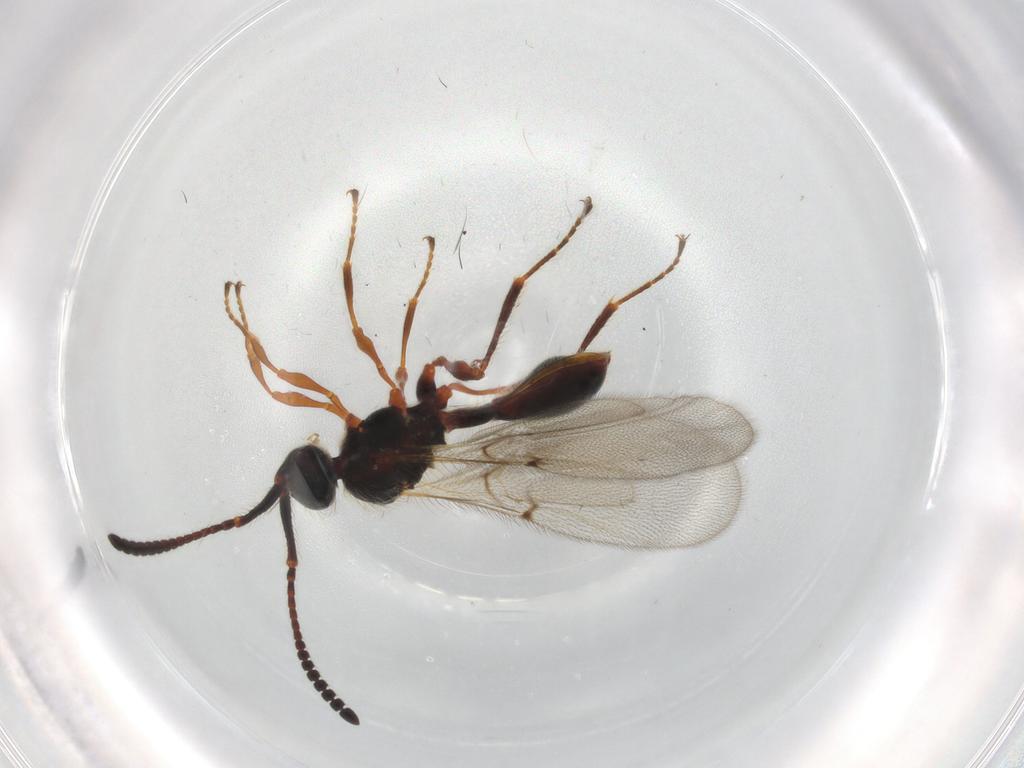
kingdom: Animalia
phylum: Arthropoda
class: Insecta
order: Hymenoptera
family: Diapriidae
